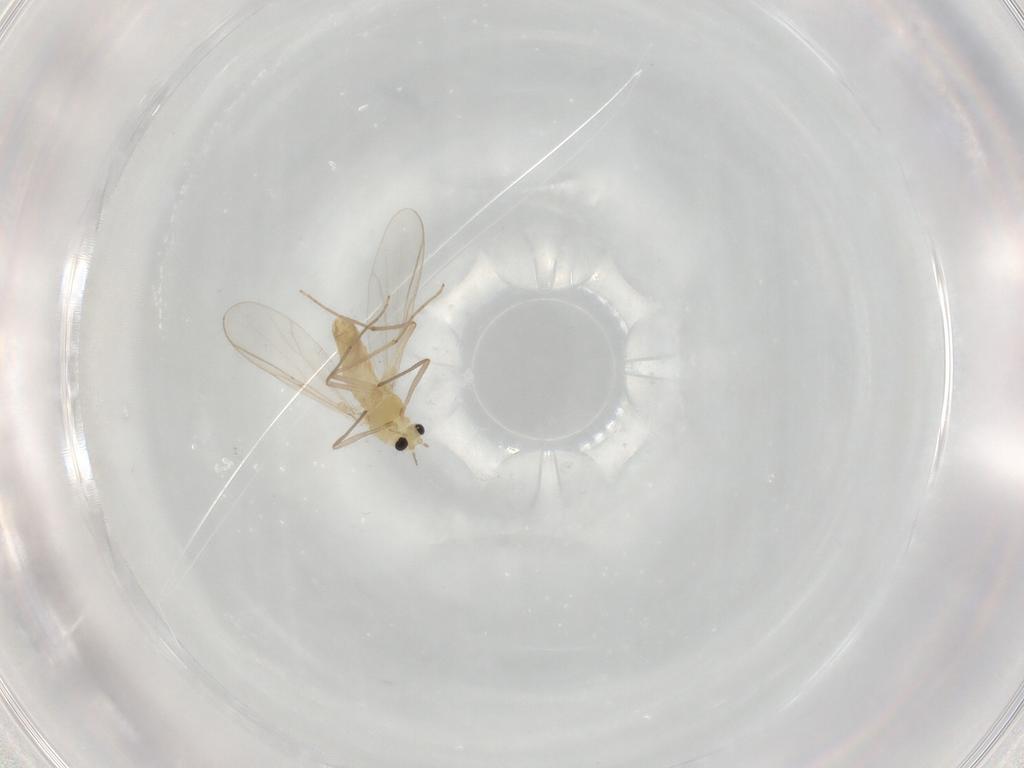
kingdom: Animalia
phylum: Arthropoda
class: Insecta
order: Diptera
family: Chironomidae
